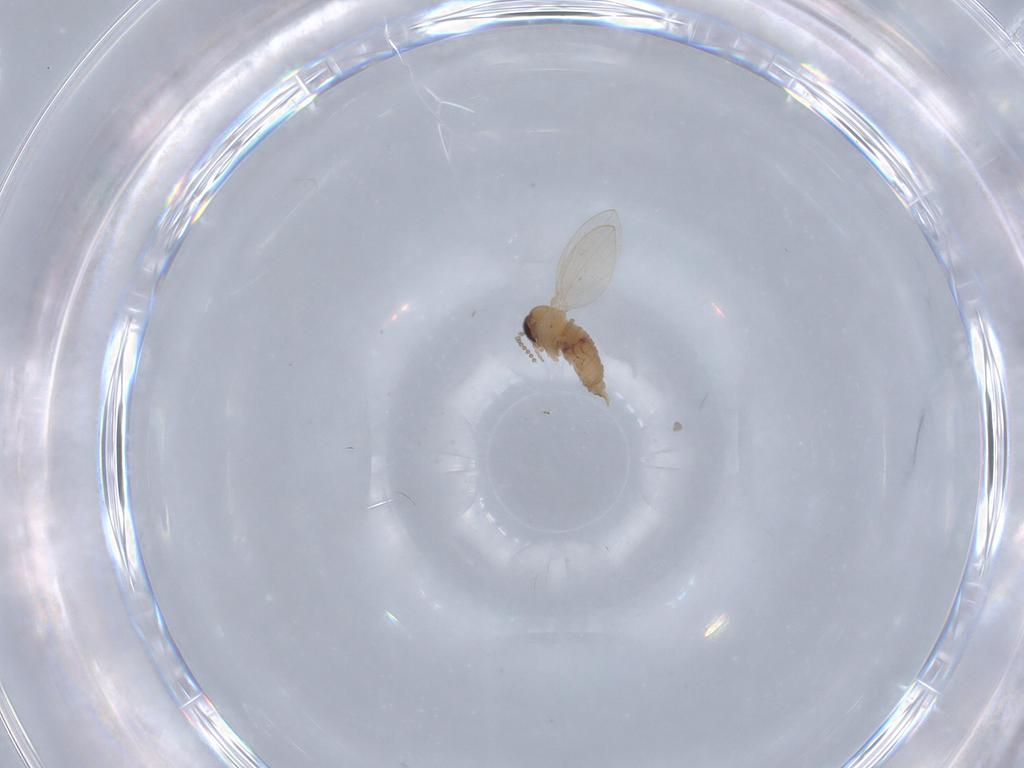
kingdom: Animalia
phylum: Arthropoda
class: Insecta
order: Diptera
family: Psychodidae
